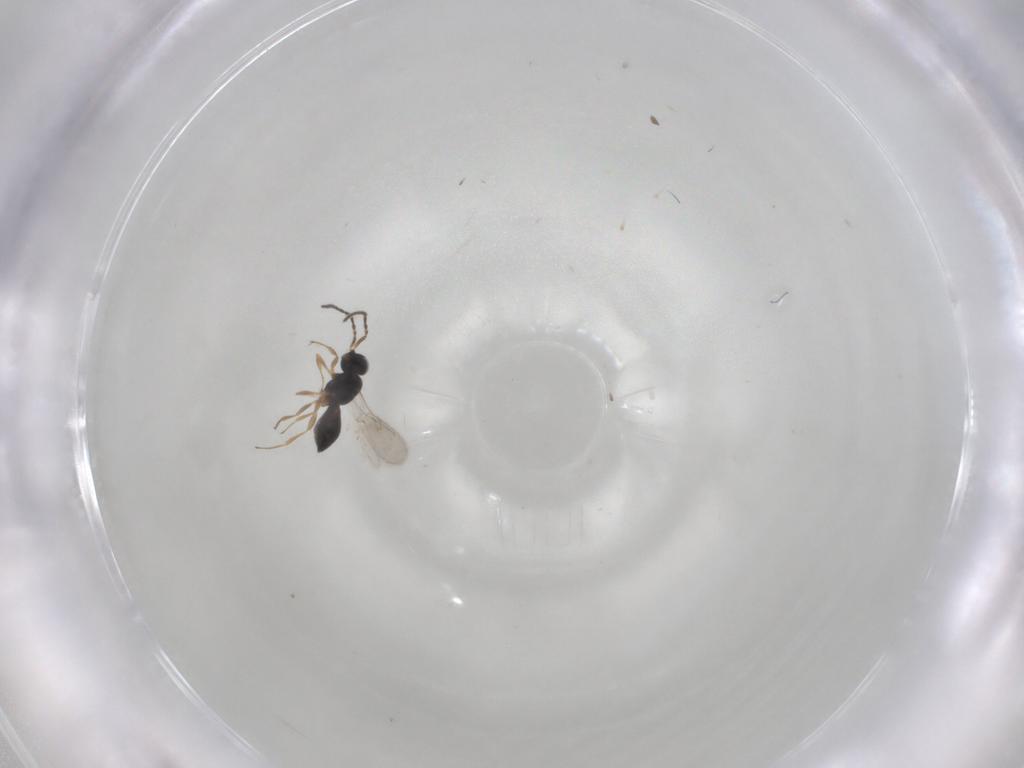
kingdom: Animalia
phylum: Arthropoda
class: Insecta
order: Hymenoptera
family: Scelionidae
